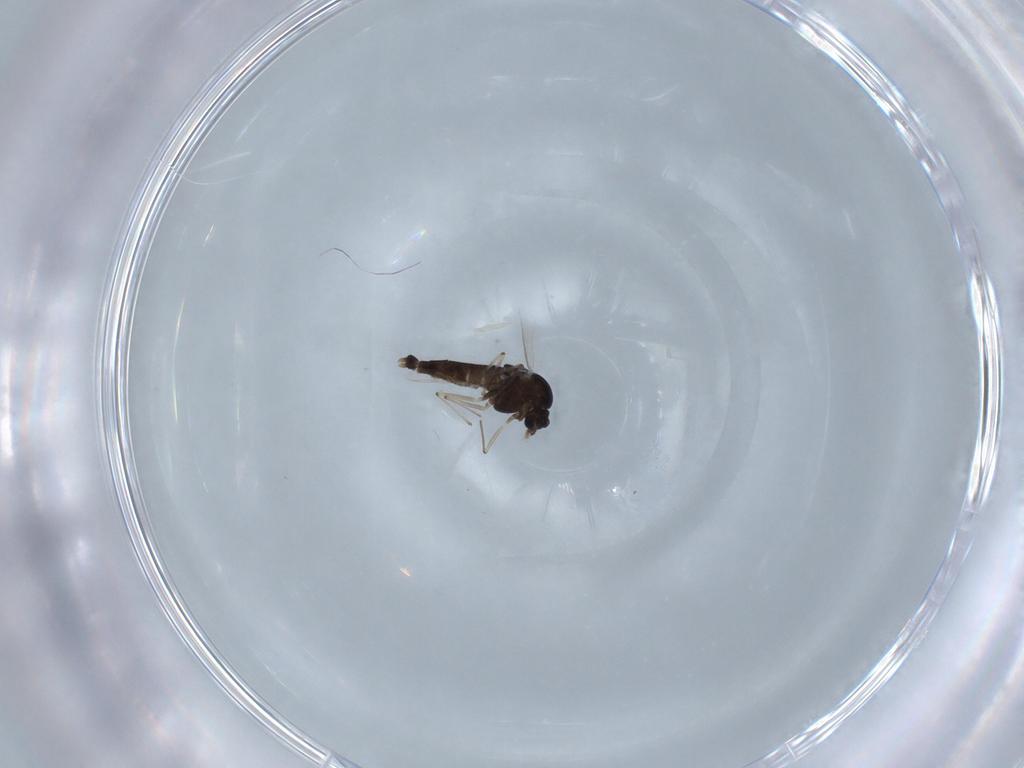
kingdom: Animalia
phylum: Arthropoda
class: Insecta
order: Diptera
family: Chironomidae
